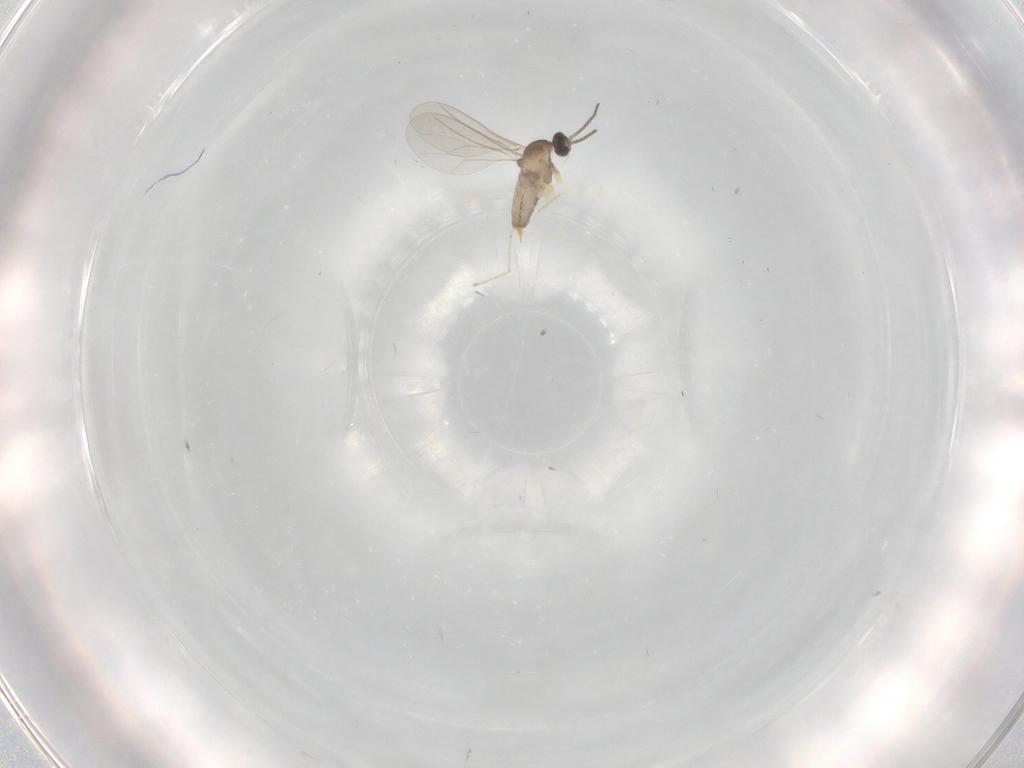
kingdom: Animalia
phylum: Arthropoda
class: Insecta
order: Diptera
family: Cecidomyiidae
